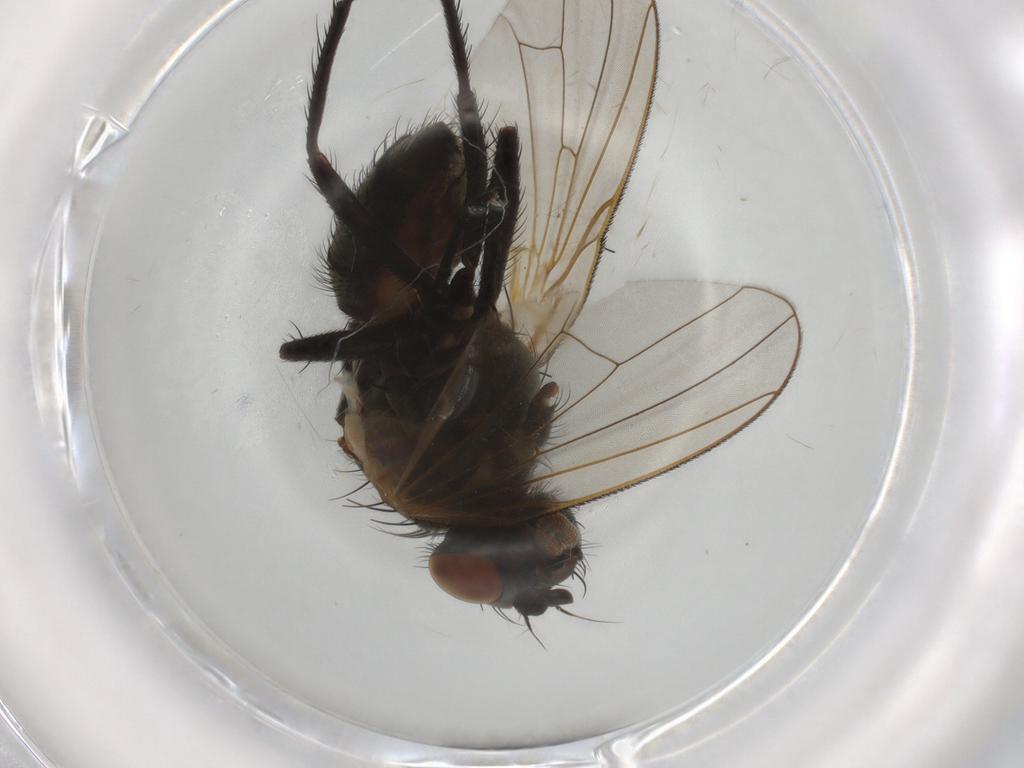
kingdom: Animalia
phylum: Arthropoda
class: Insecta
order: Diptera
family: Anthomyiidae
